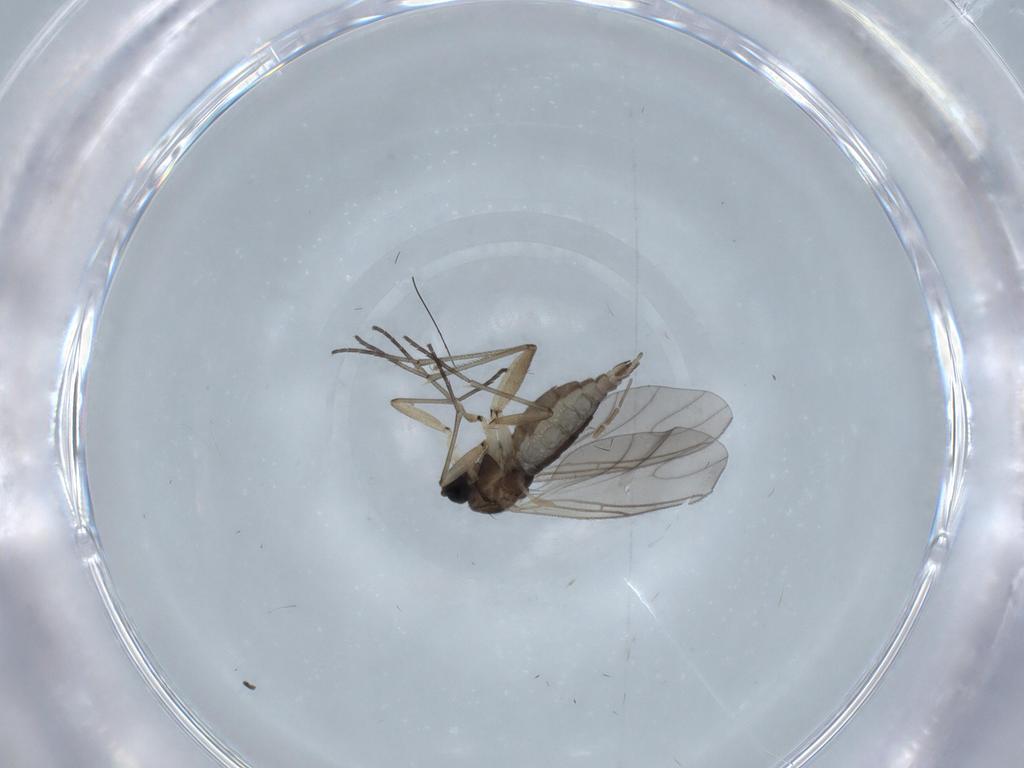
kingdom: Animalia
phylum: Arthropoda
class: Insecta
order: Diptera
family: Sciaridae
